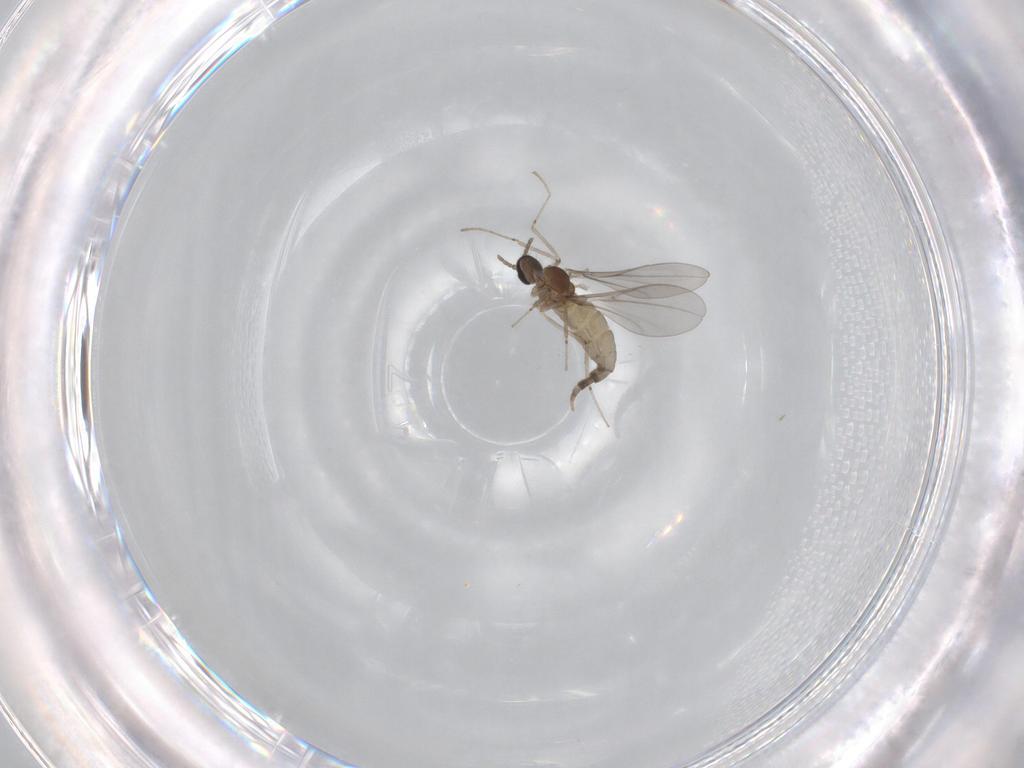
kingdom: Animalia
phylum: Arthropoda
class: Insecta
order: Diptera
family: Cecidomyiidae
